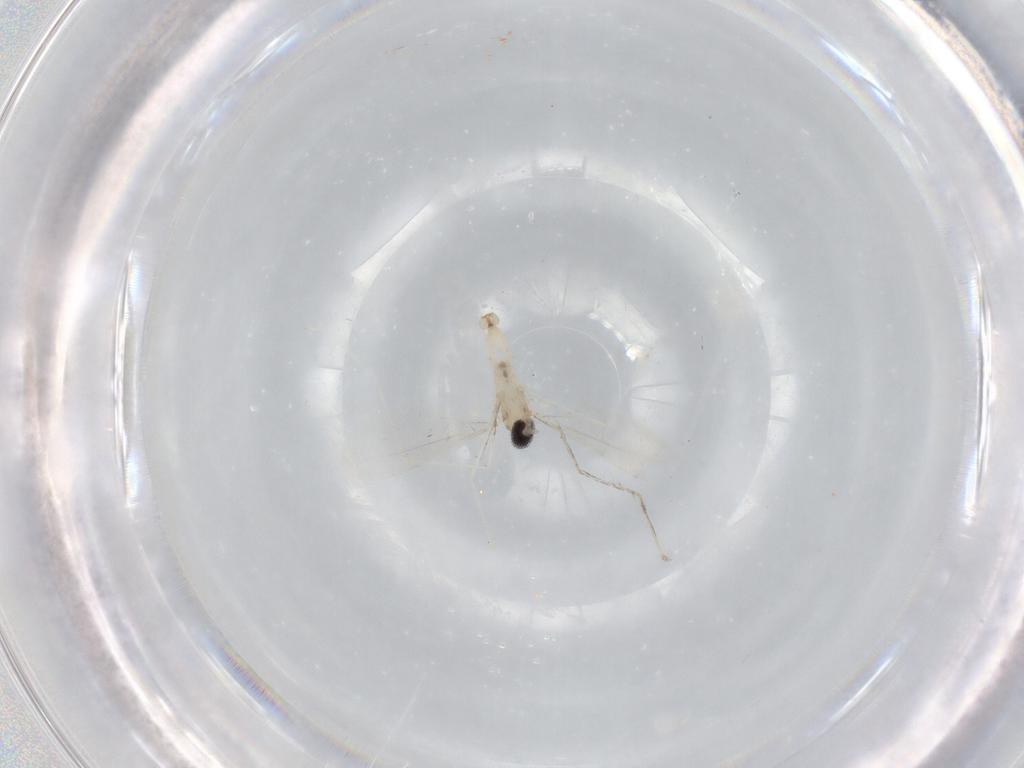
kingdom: Animalia
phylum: Arthropoda
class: Insecta
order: Diptera
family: Cecidomyiidae
